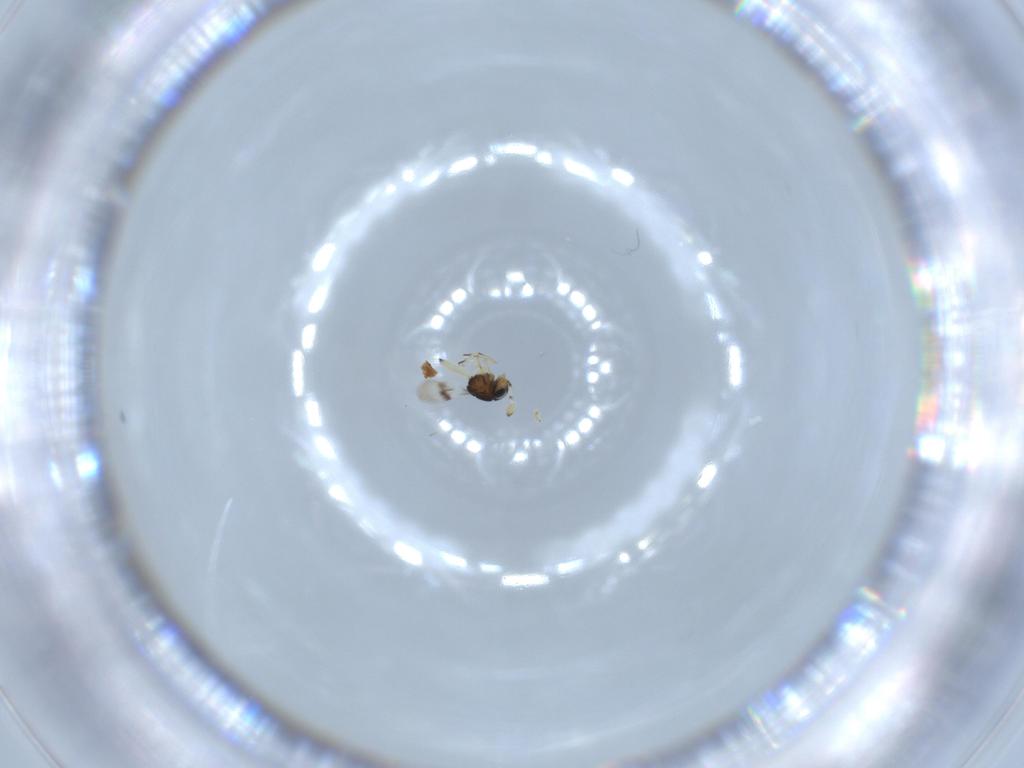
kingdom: Animalia
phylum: Arthropoda
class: Insecta
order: Hymenoptera
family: Scelionidae
